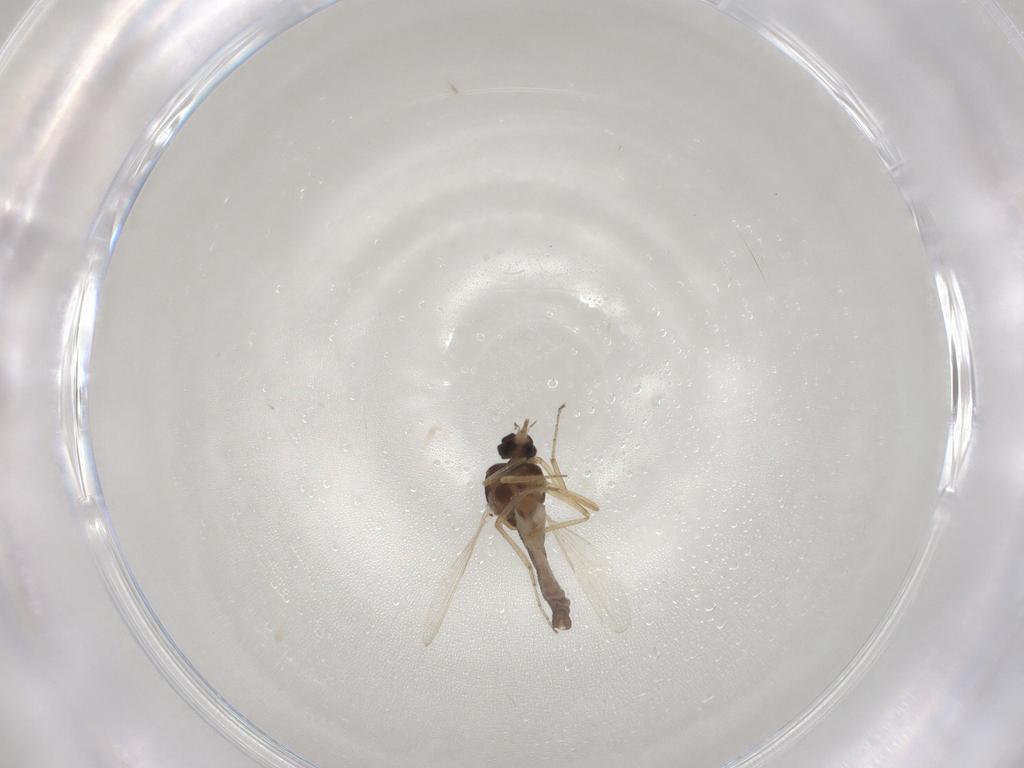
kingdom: Animalia
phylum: Arthropoda
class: Insecta
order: Diptera
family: Ceratopogonidae
